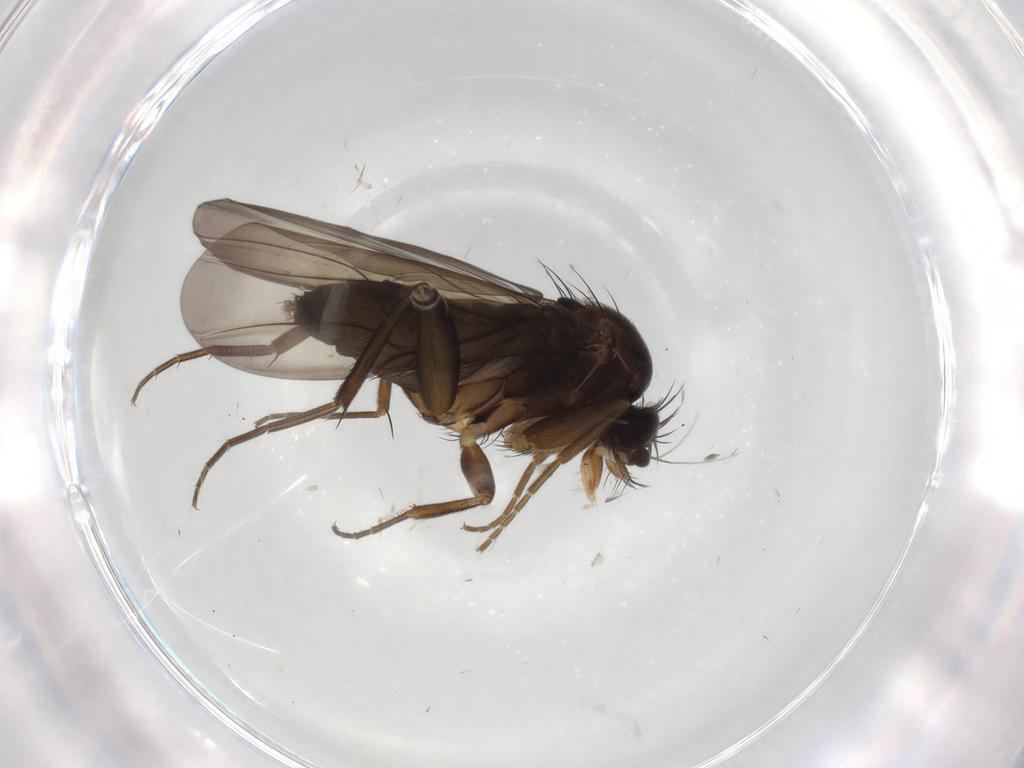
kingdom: Animalia
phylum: Arthropoda
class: Insecta
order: Diptera
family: Phoridae
